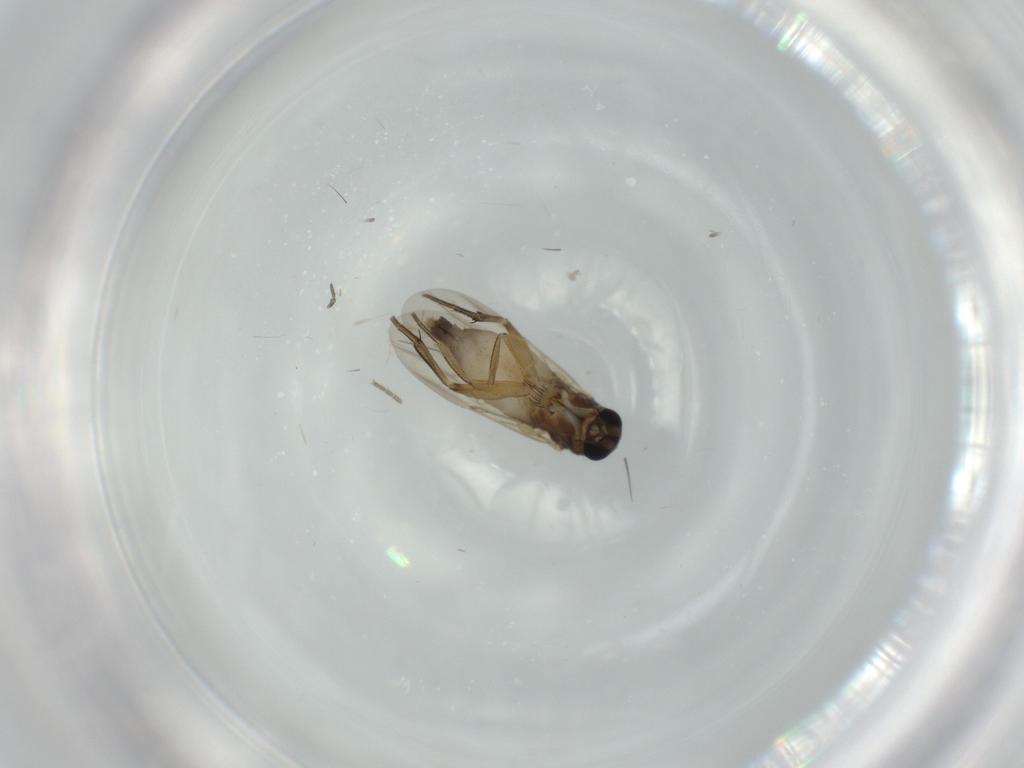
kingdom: Animalia
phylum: Arthropoda
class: Insecta
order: Diptera
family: Phoridae
